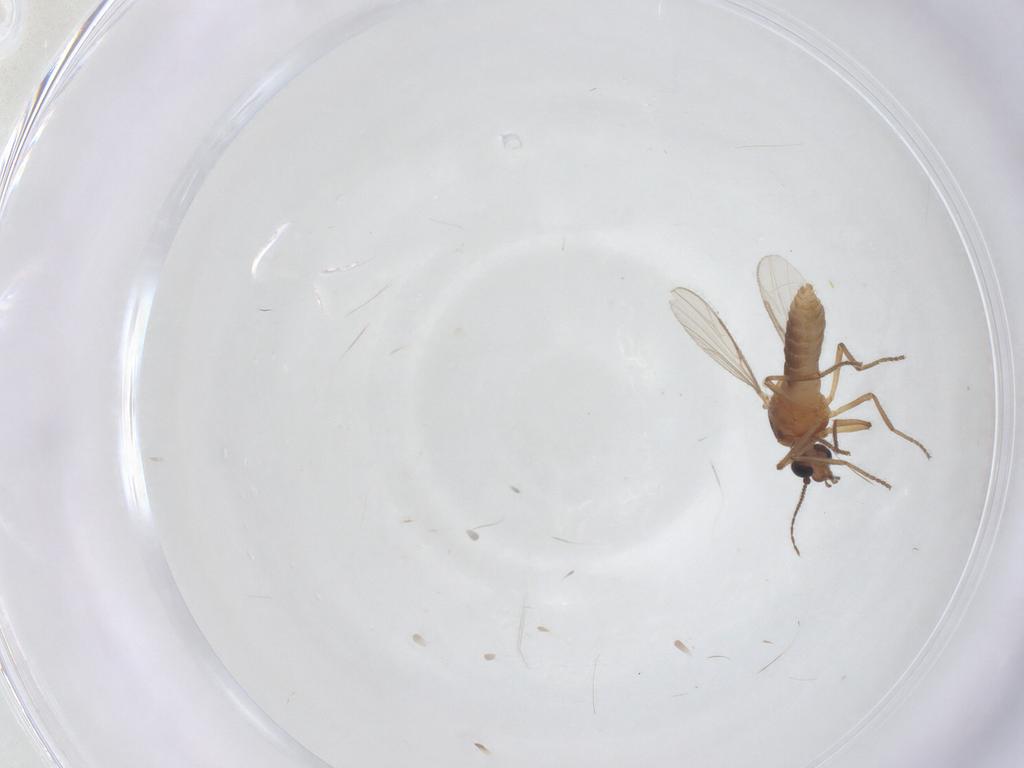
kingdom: Animalia
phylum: Arthropoda
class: Insecta
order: Diptera
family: Ceratopogonidae
